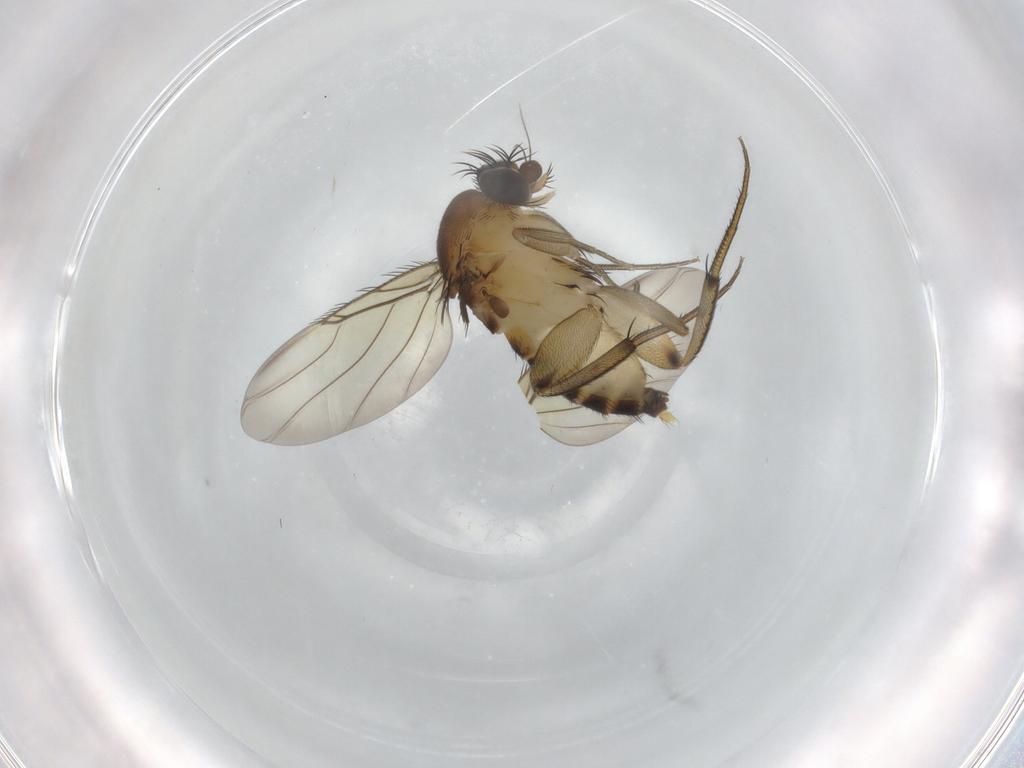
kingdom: Animalia
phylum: Arthropoda
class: Insecta
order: Diptera
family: Phoridae
